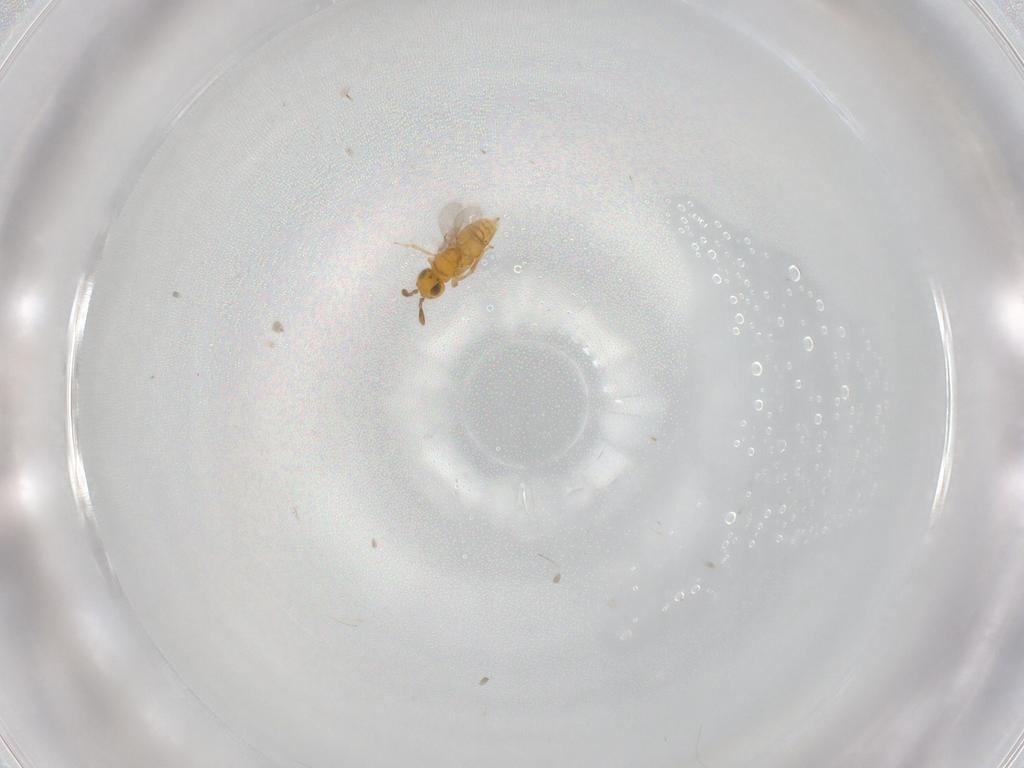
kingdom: Animalia
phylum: Arthropoda
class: Insecta
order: Hymenoptera
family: Encyrtidae
